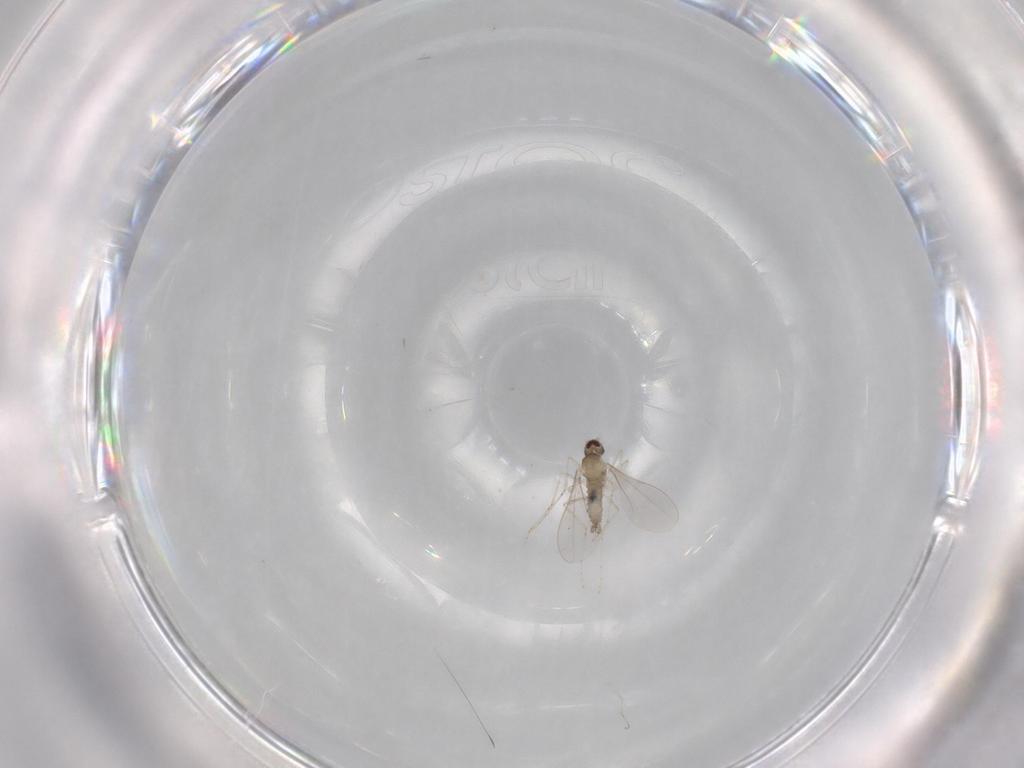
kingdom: Animalia
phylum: Arthropoda
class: Insecta
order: Diptera
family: Cecidomyiidae
